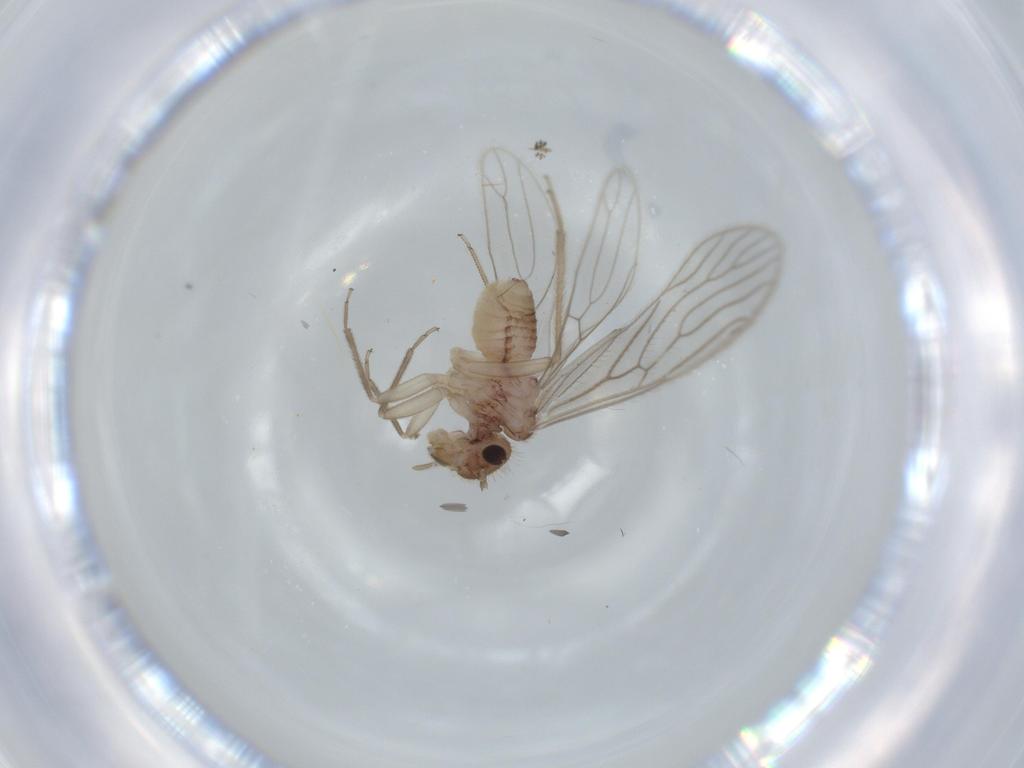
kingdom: Animalia
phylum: Arthropoda
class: Insecta
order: Psocodea
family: Cladiopsocidae
